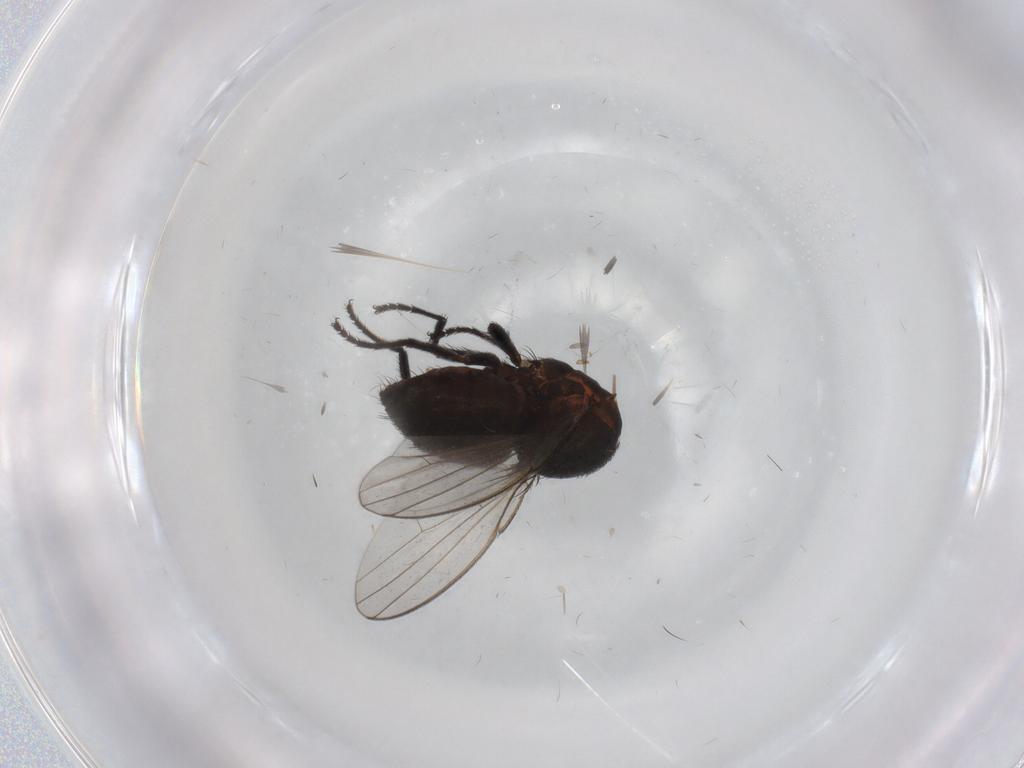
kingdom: Animalia
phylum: Arthropoda
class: Insecta
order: Diptera
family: Milichiidae
